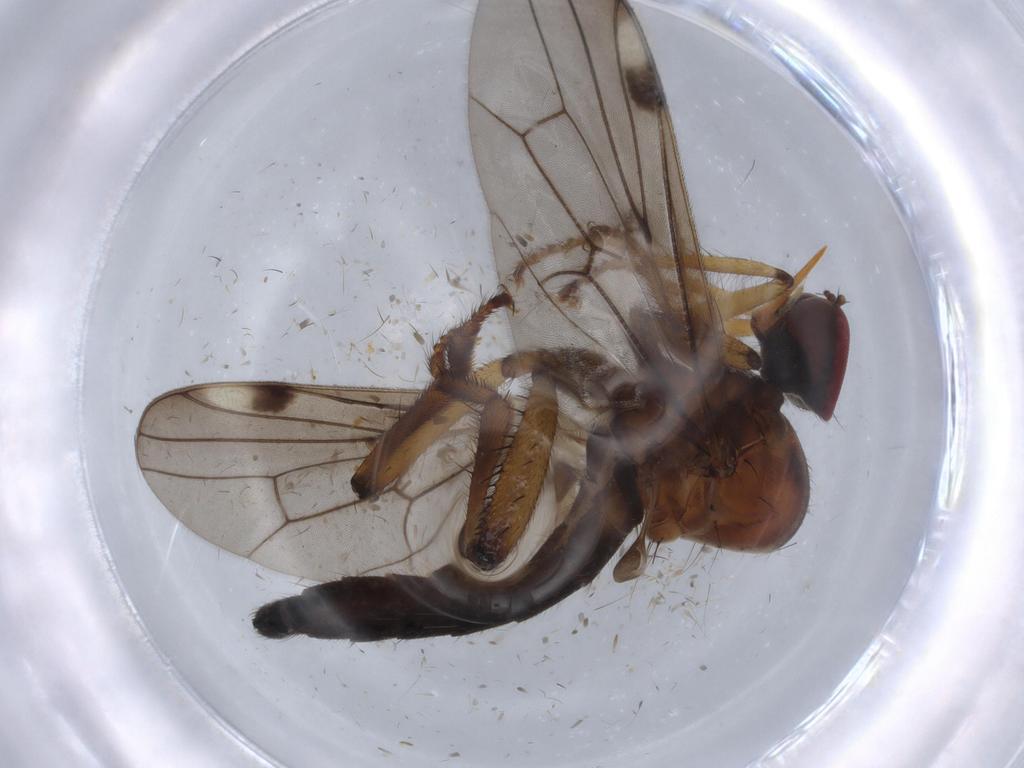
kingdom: Animalia
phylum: Arthropoda
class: Insecta
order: Diptera
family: Hybotidae
